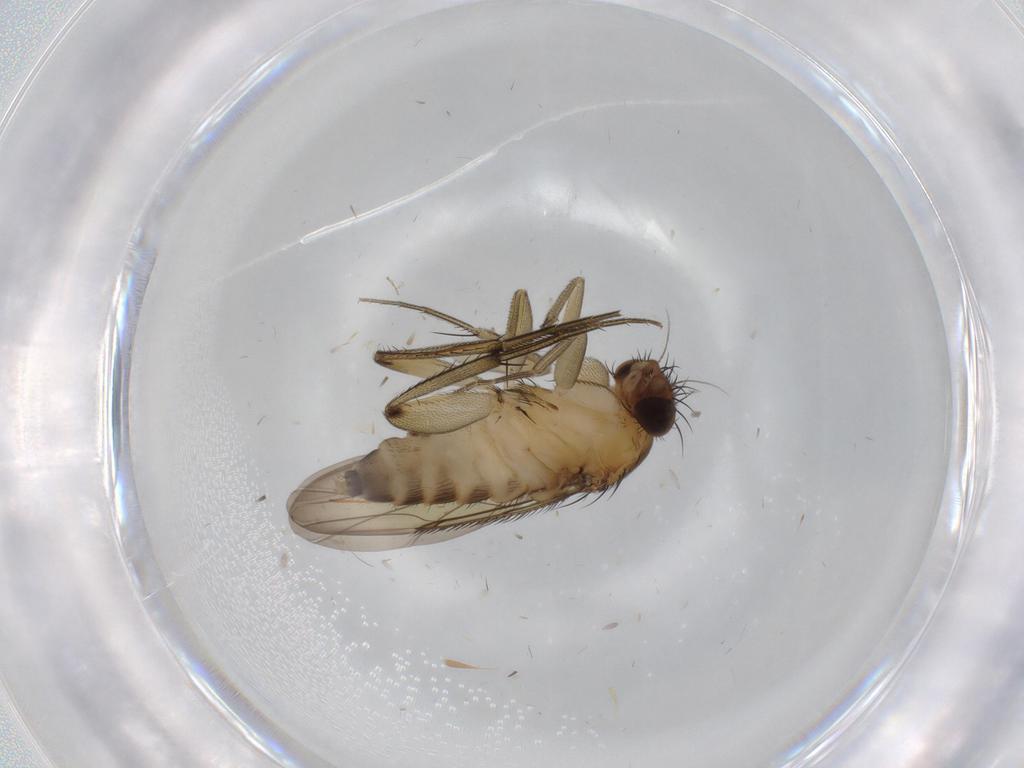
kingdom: Animalia
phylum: Arthropoda
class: Insecta
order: Diptera
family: Phoridae
